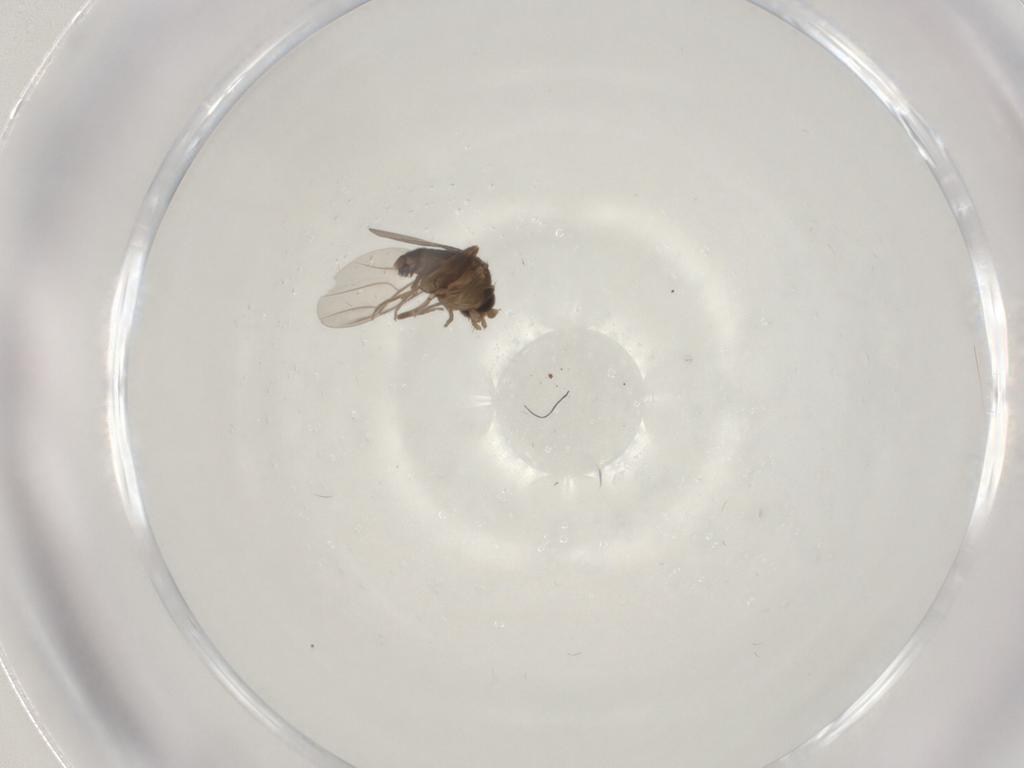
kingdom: Animalia
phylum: Arthropoda
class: Insecta
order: Diptera
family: Phoridae
